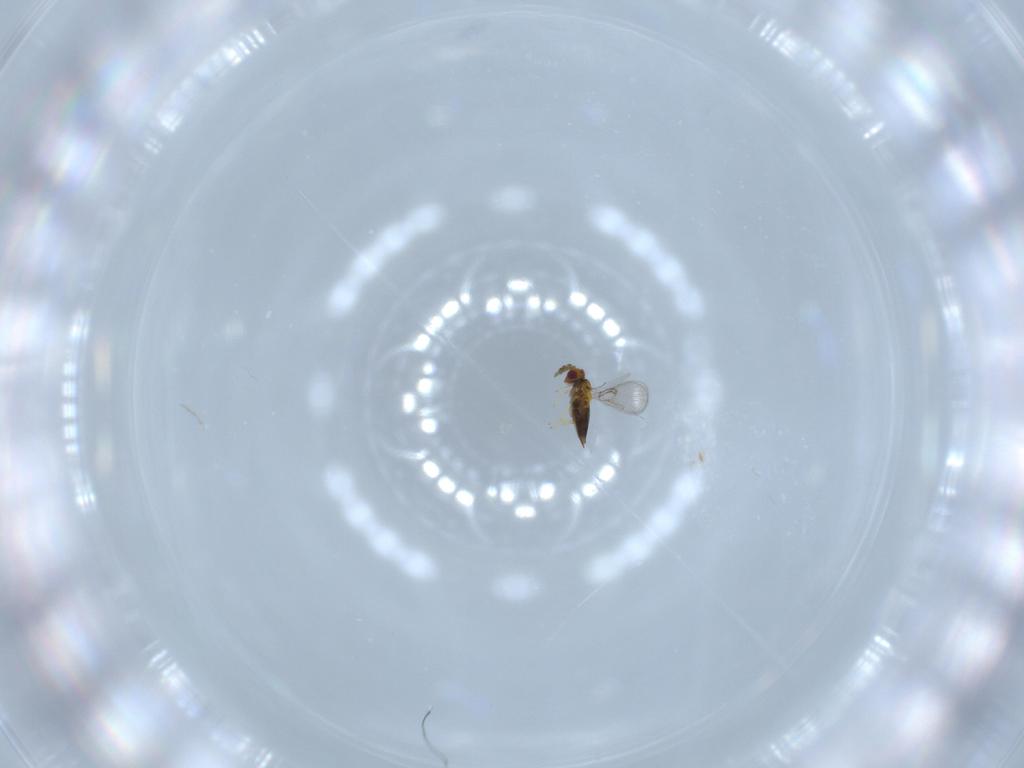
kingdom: Animalia
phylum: Arthropoda
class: Insecta
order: Hymenoptera
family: Trichogrammatidae
